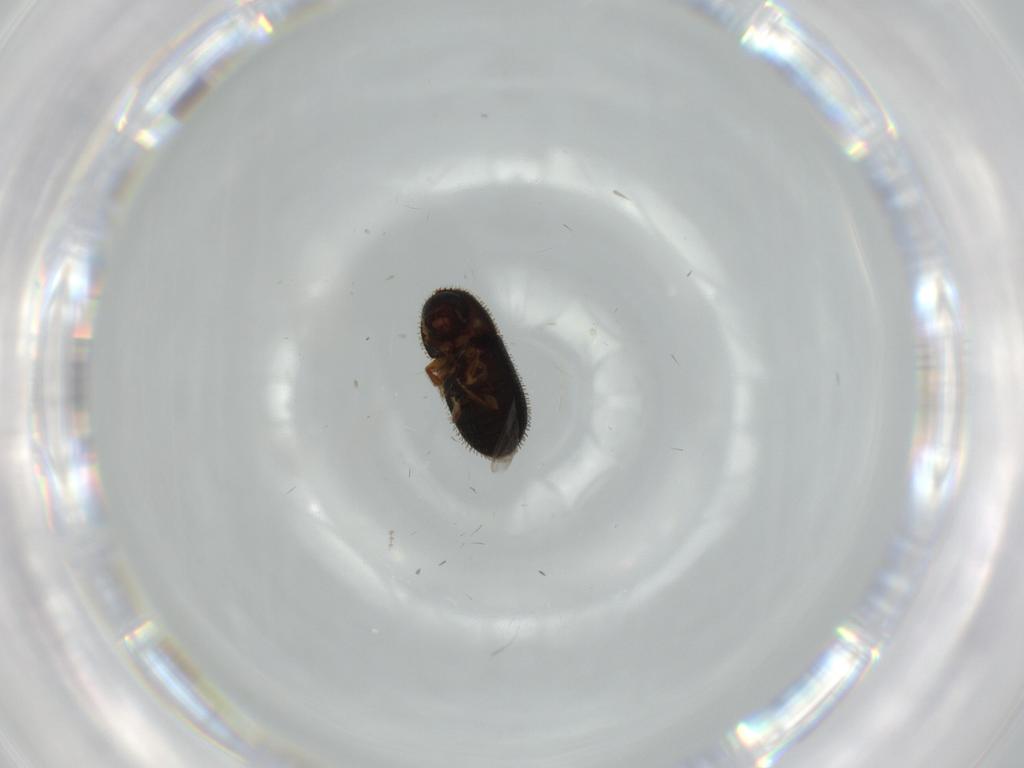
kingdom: Animalia
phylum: Arthropoda
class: Insecta
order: Coleoptera
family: Curculionidae
